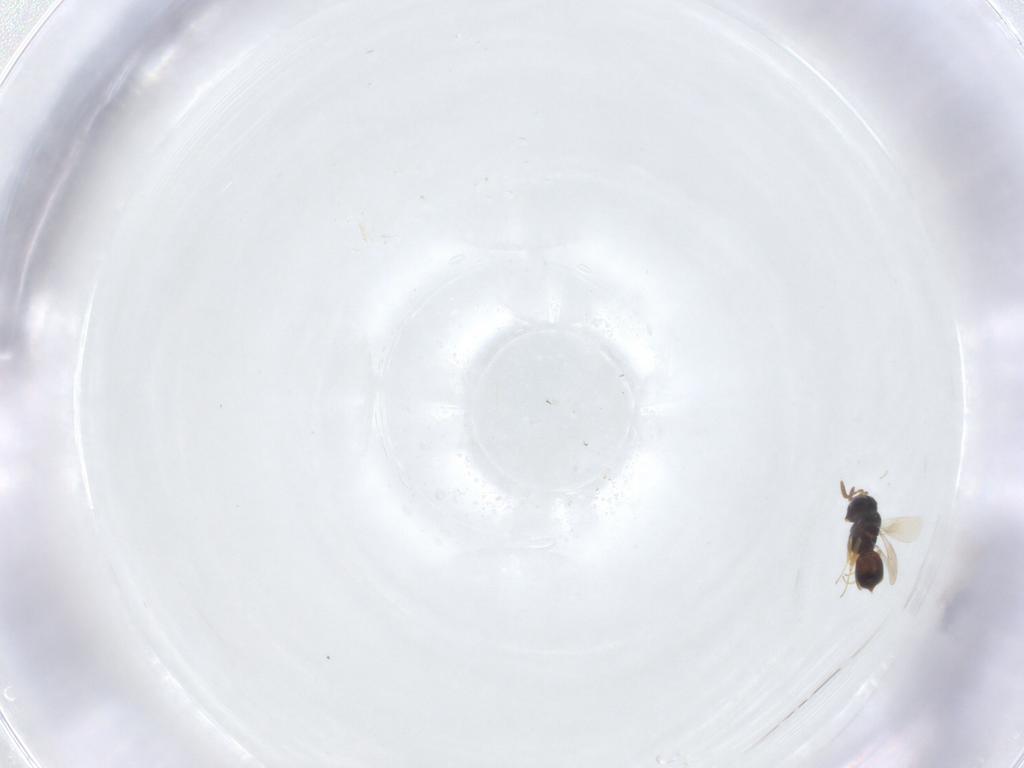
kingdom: Animalia
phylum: Arthropoda
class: Insecta
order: Hymenoptera
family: Scelionidae
